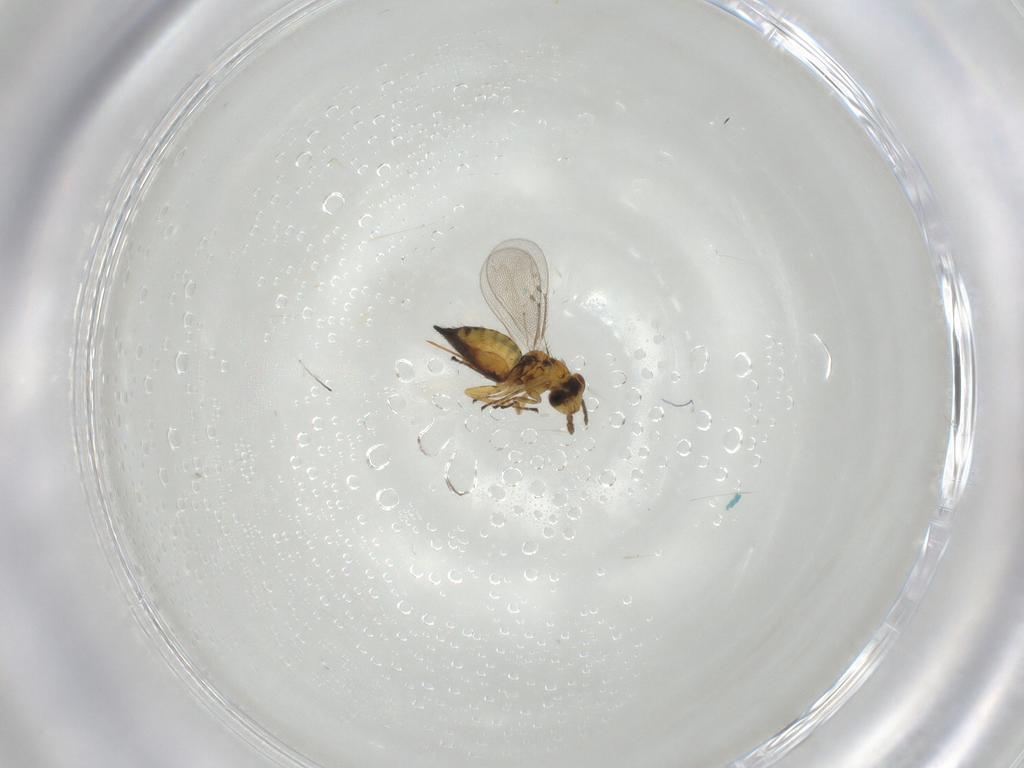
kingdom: Animalia
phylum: Arthropoda
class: Insecta
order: Hymenoptera
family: Eulophidae
